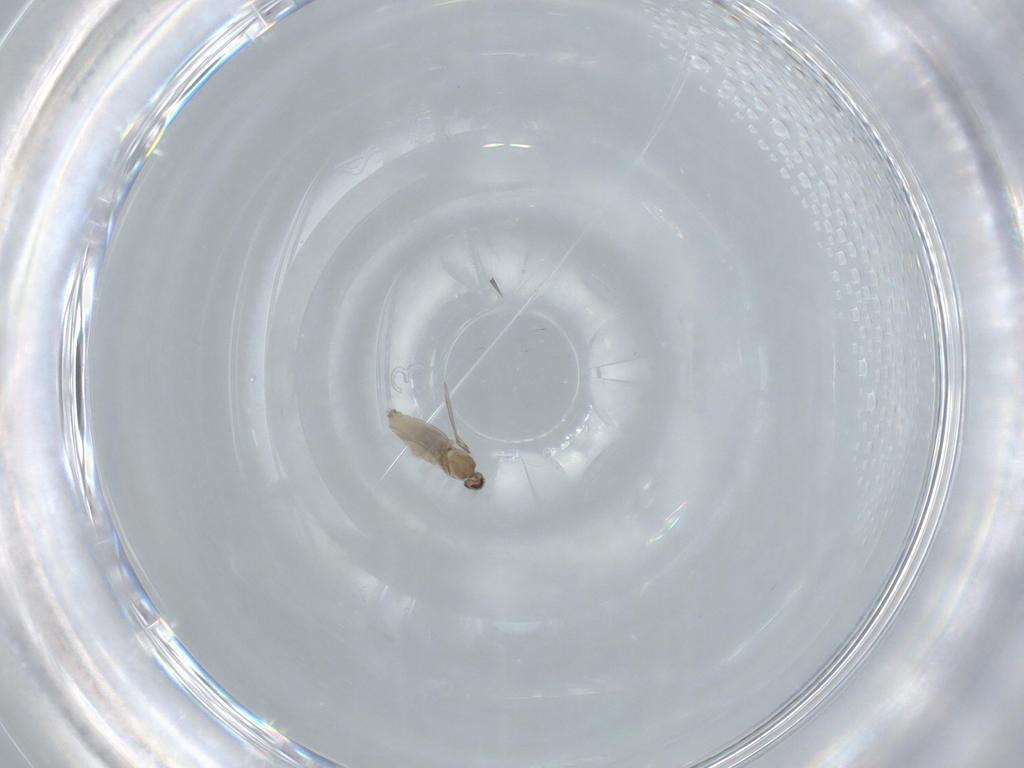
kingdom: Animalia
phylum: Arthropoda
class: Insecta
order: Diptera
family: Cecidomyiidae
